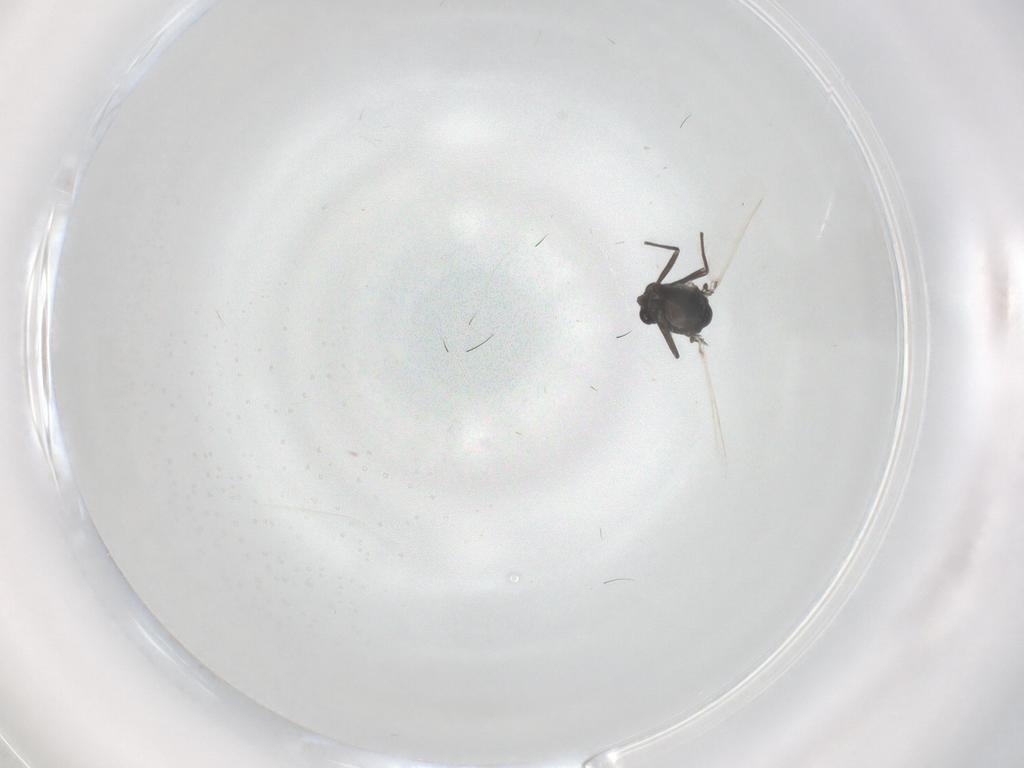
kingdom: Animalia
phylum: Arthropoda
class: Insecta
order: Diptera
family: Chironomidae
